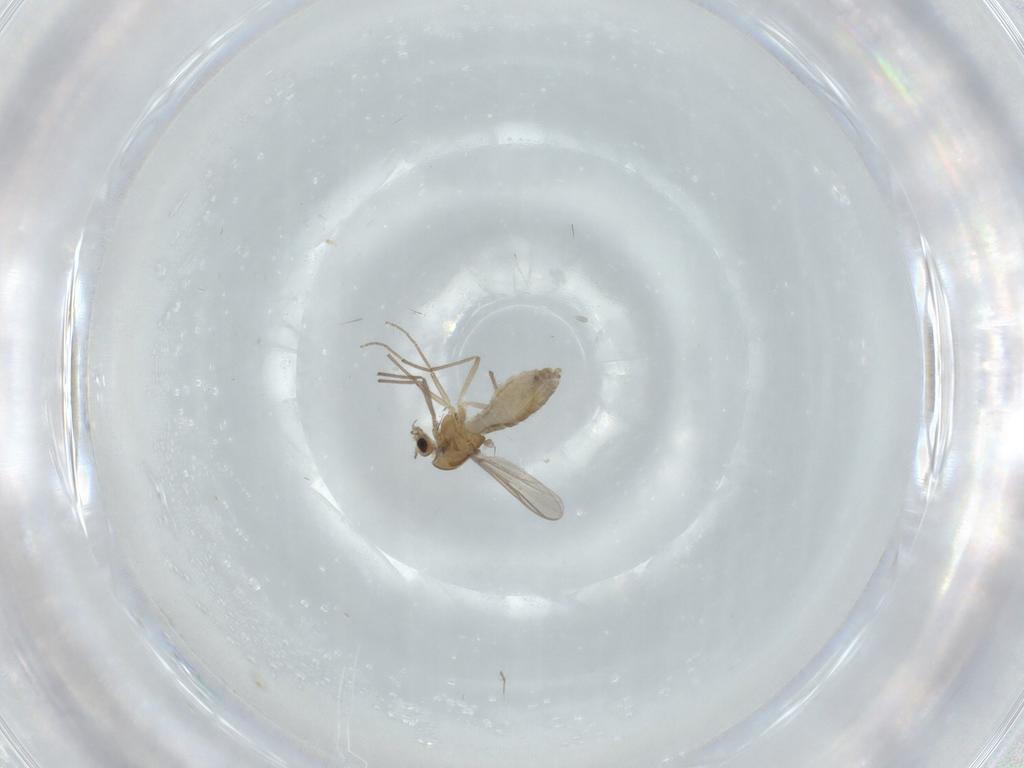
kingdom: Animalia
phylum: Arthropoda
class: Insecta
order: Diptera
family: Chironomidae
